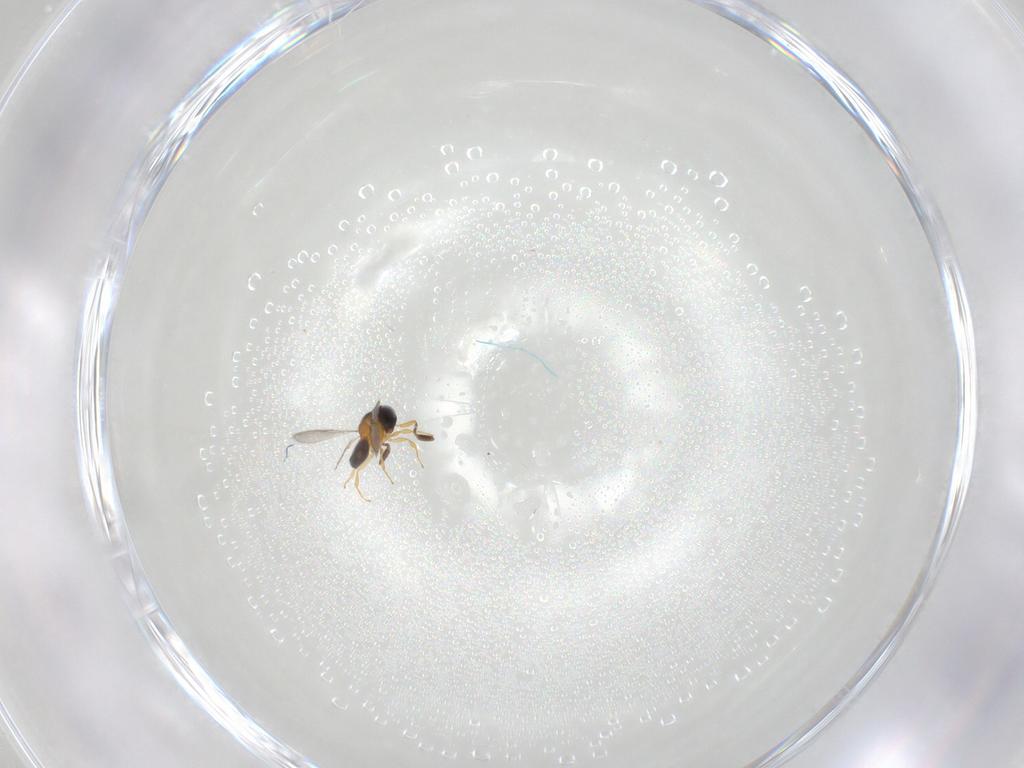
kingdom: Animalia
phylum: Arthropoda
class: Insecta
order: Hymenoptera
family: Scelionidae
